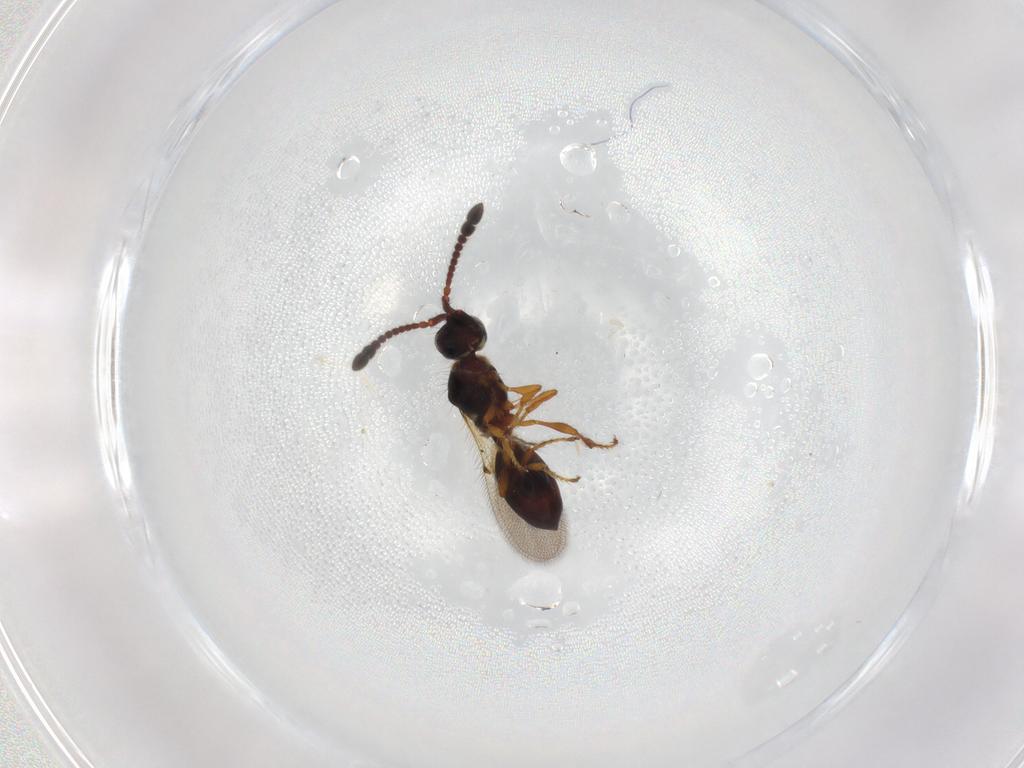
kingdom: Animalia
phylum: Arthropoda
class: Insecta
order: Hymenoptera
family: Diapriidae
